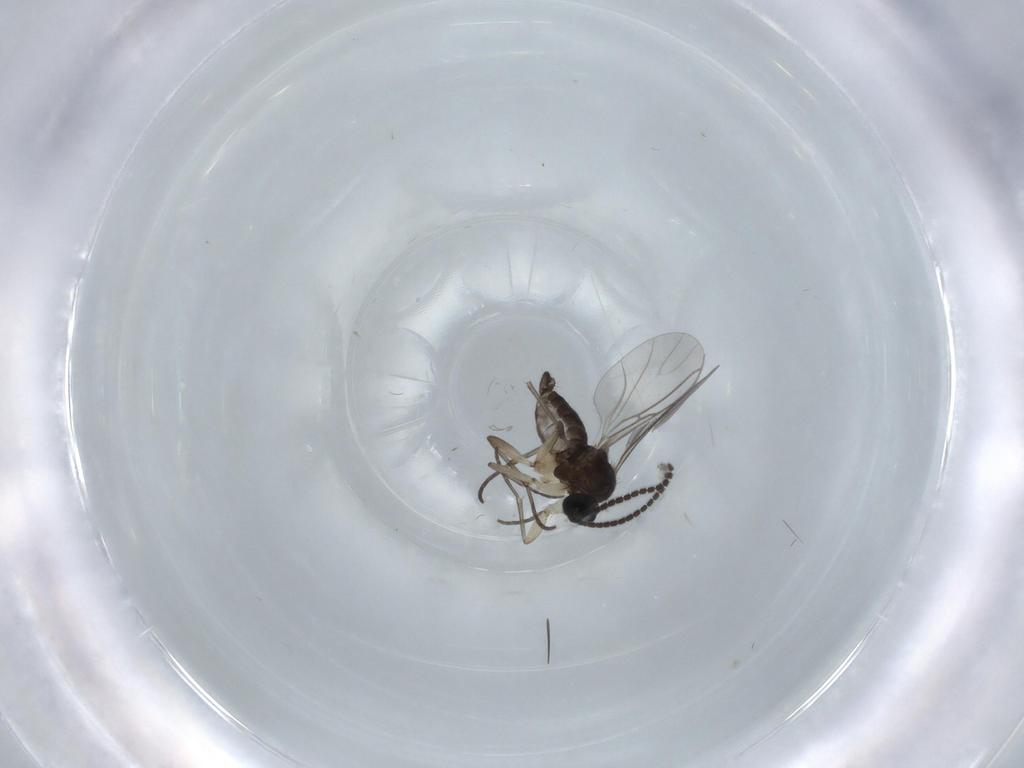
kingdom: Animalia
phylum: Arthropoda
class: Insecta
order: Diptera
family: Sciaridae
